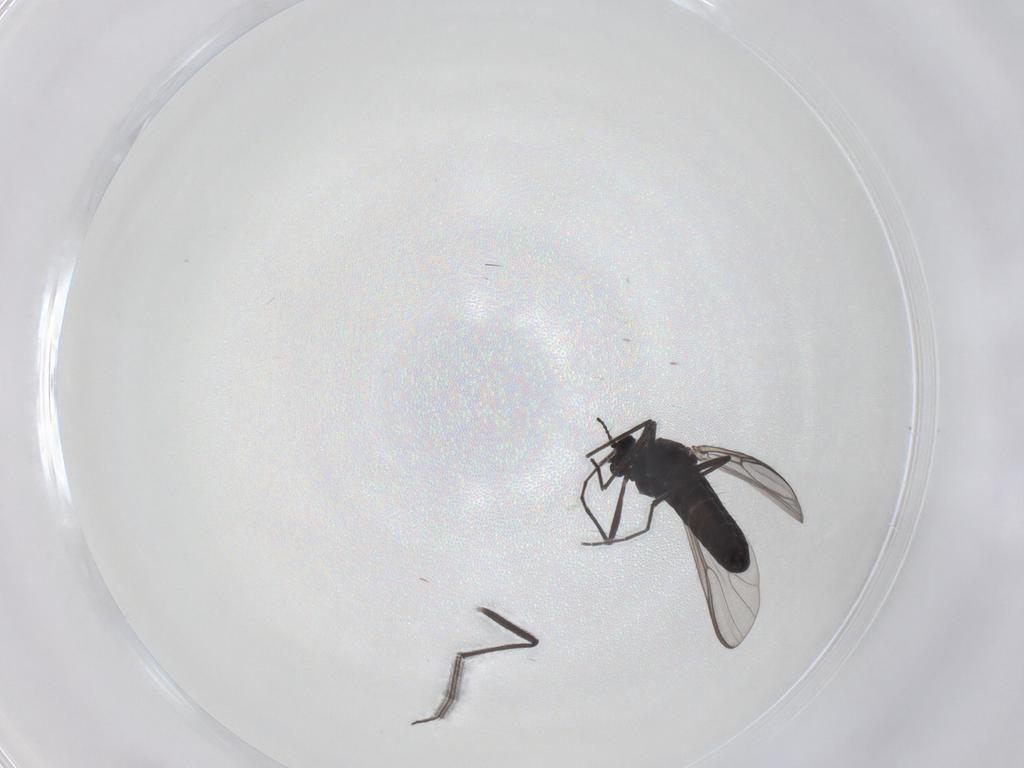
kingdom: Animalia
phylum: Arthropoda
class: Insecta
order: Diptera
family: Chironomidae
